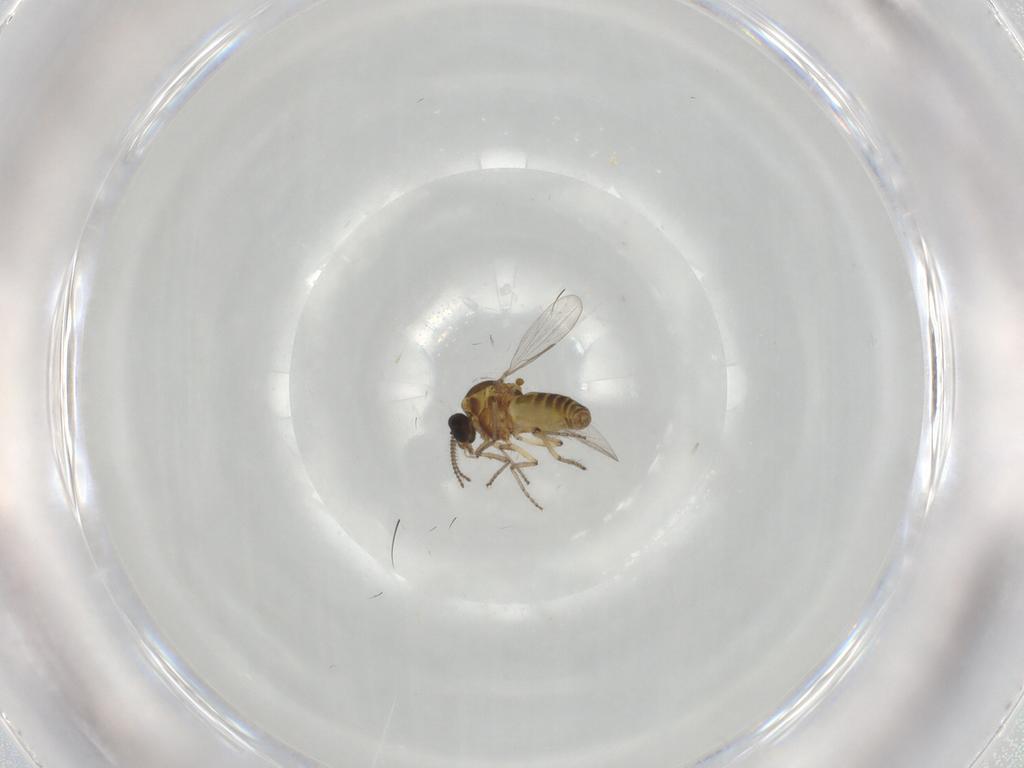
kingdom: Animalia
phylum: Arthropoda
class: Insecta
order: Diptera
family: Ceratopogonidae
